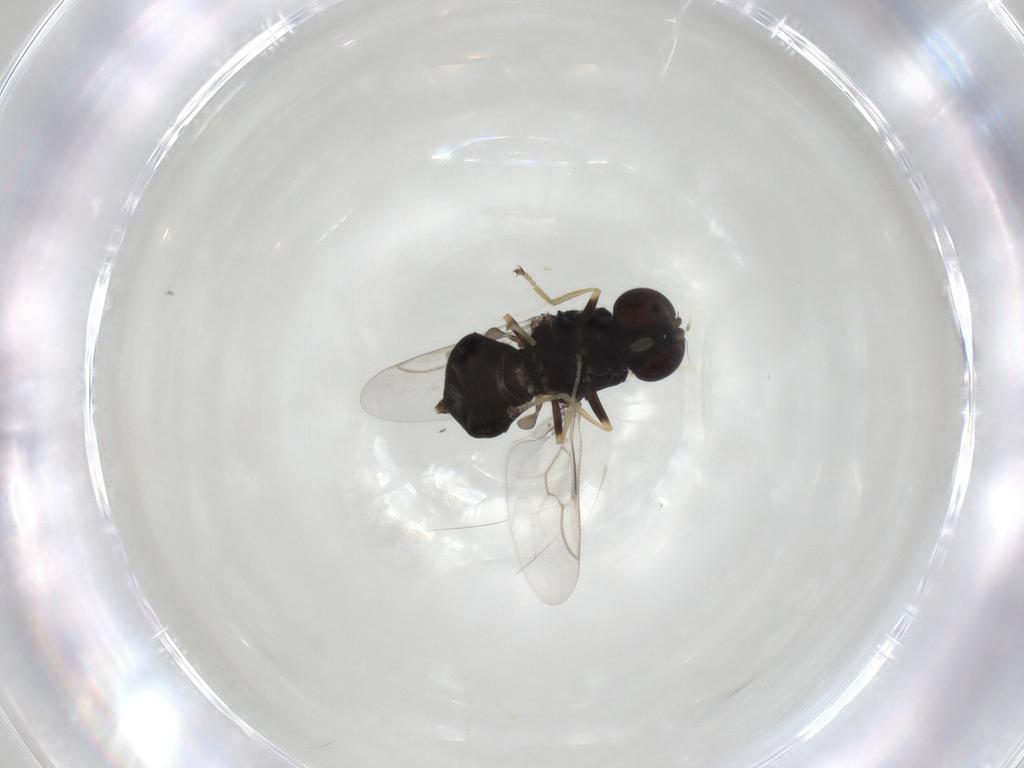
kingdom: Animalia
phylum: Arthropoda
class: Insecta
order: Diptera
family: Stratiomyidae
